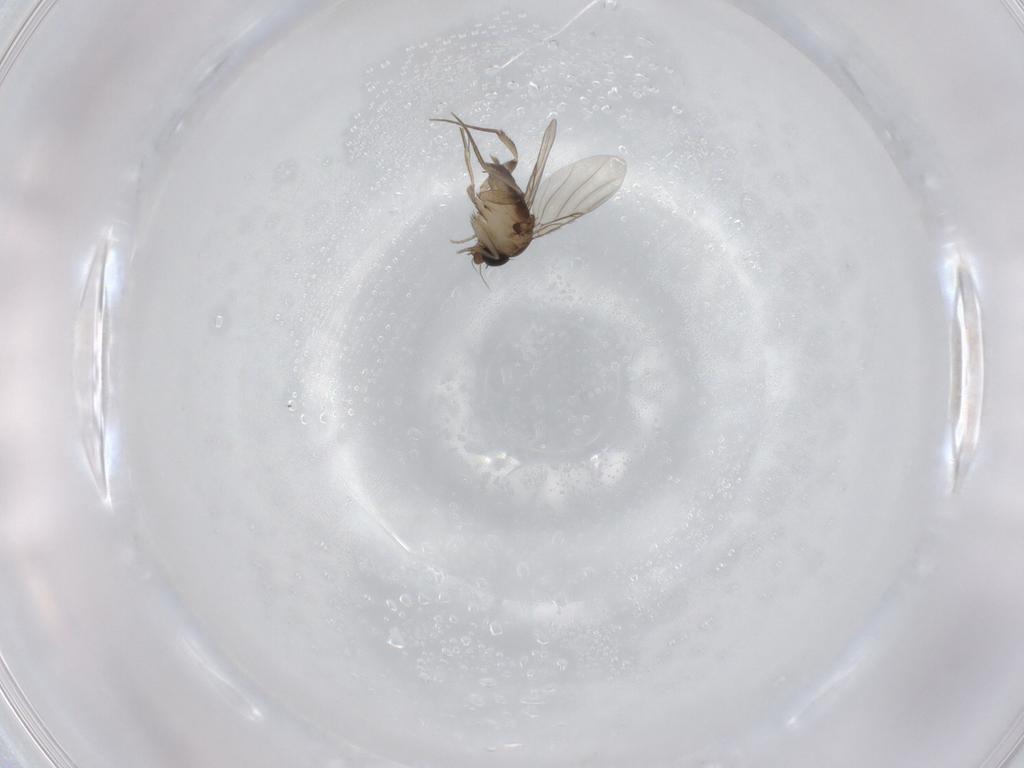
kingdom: Animalia
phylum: Arthropoda
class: Insecta
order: Diptera
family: Phoridae
